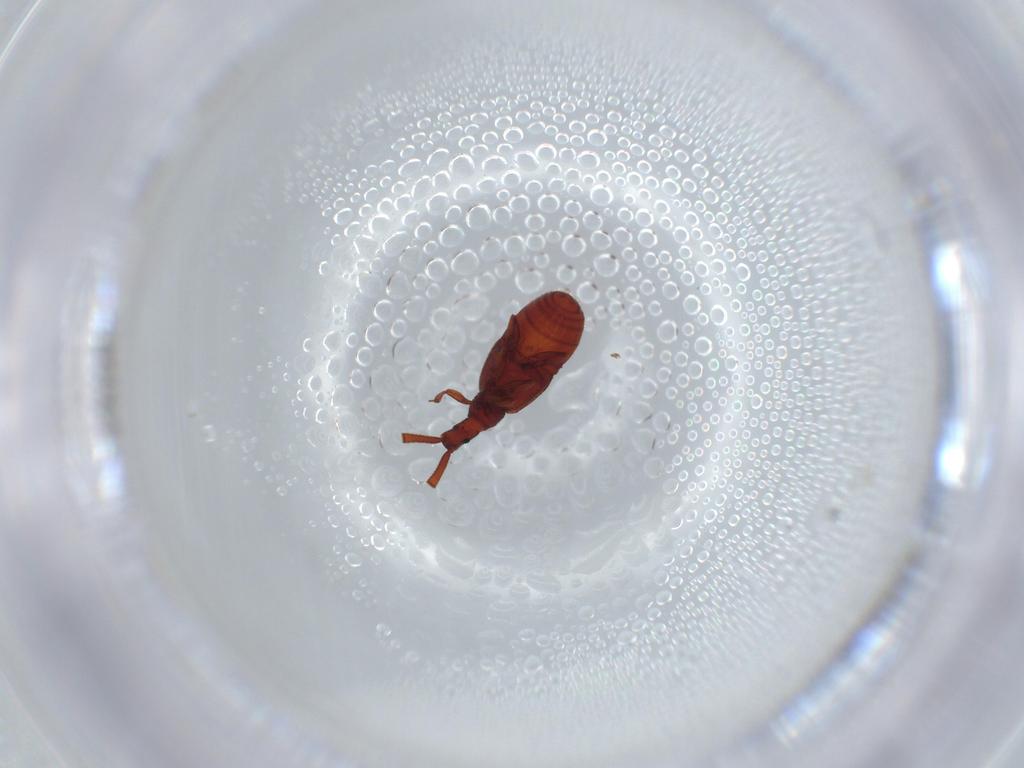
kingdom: Animalia
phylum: Arthropoda
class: Insecta
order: Coleoptera
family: Staphylinidae
